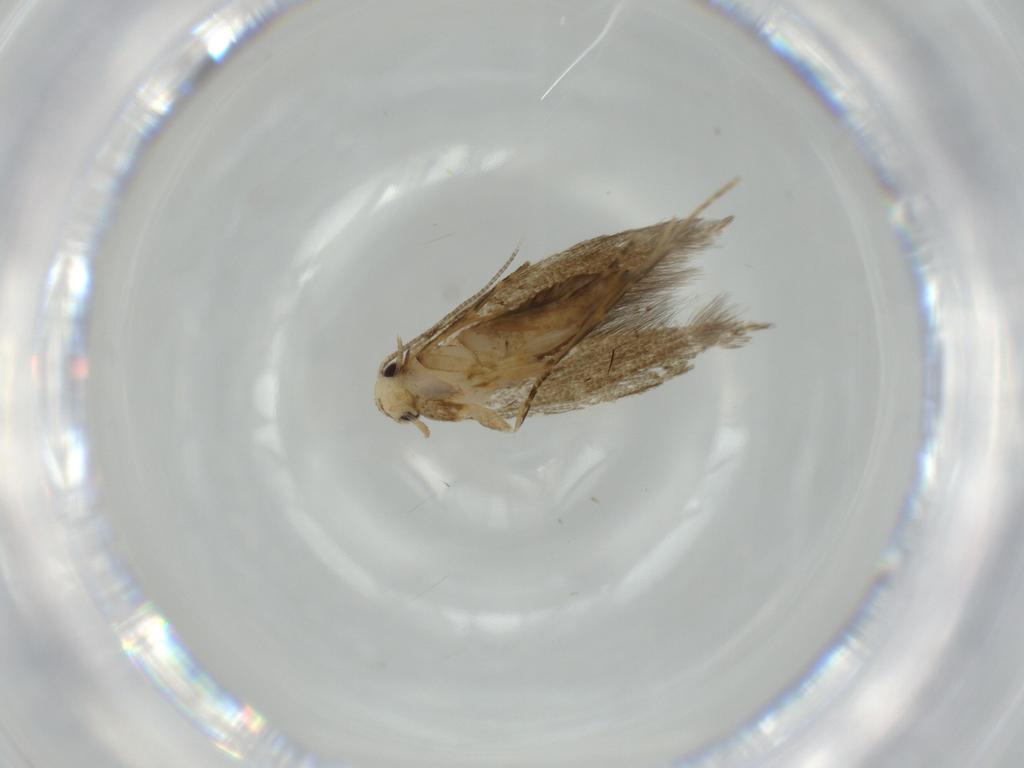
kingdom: Animalia
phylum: Arthropoda
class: Insecta
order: Lepidoptera
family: Tineidae
